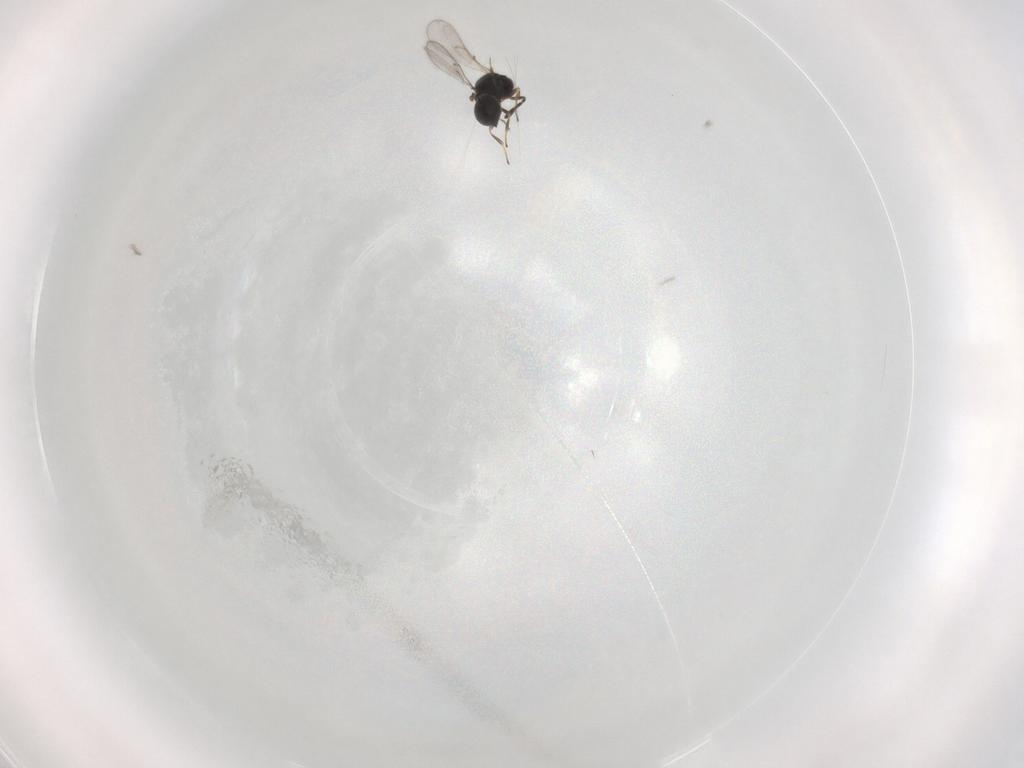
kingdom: Animalia
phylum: Arthropoda
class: Insecta
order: Hymenoptera
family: Scelionidae
